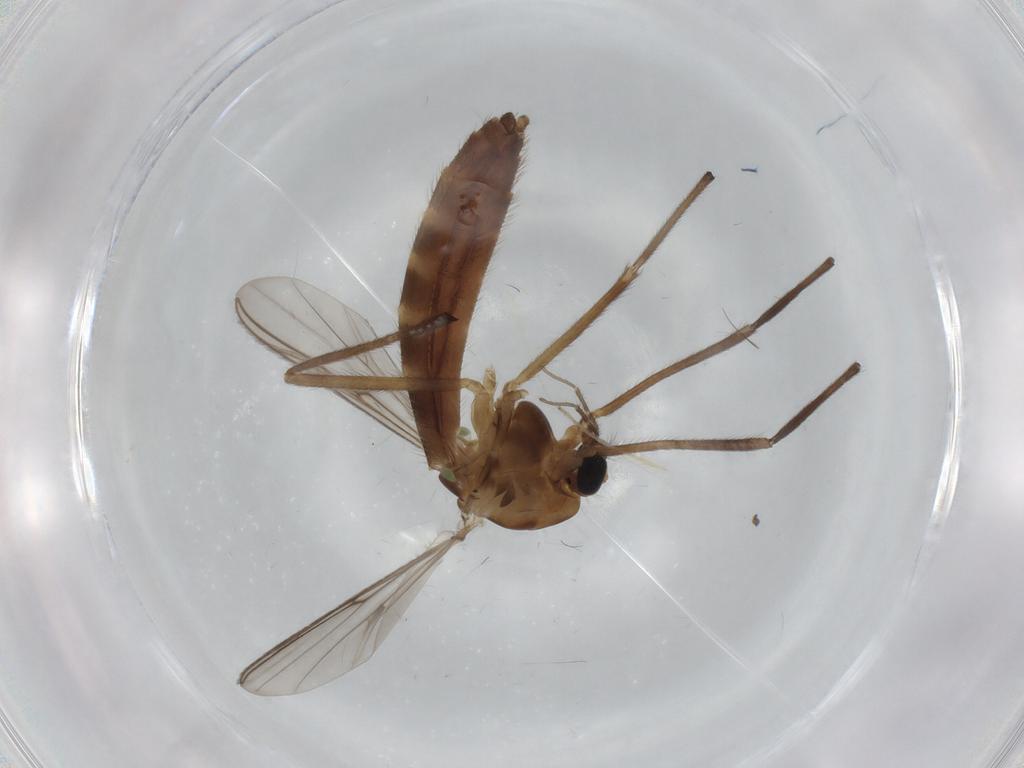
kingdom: Animalia
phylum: Arthropoda
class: Insecta
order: Diptera
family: Chironomidae
